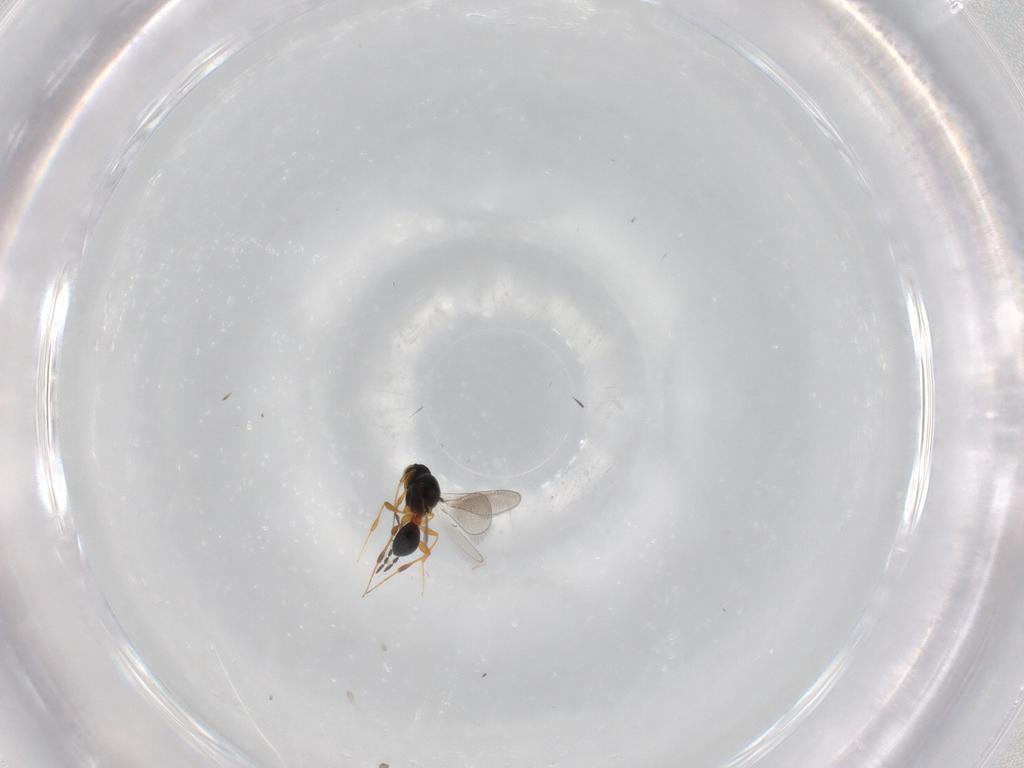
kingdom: Animalia
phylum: Arthropoda
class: Insecta
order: Hymenoptera
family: Platygastridae
